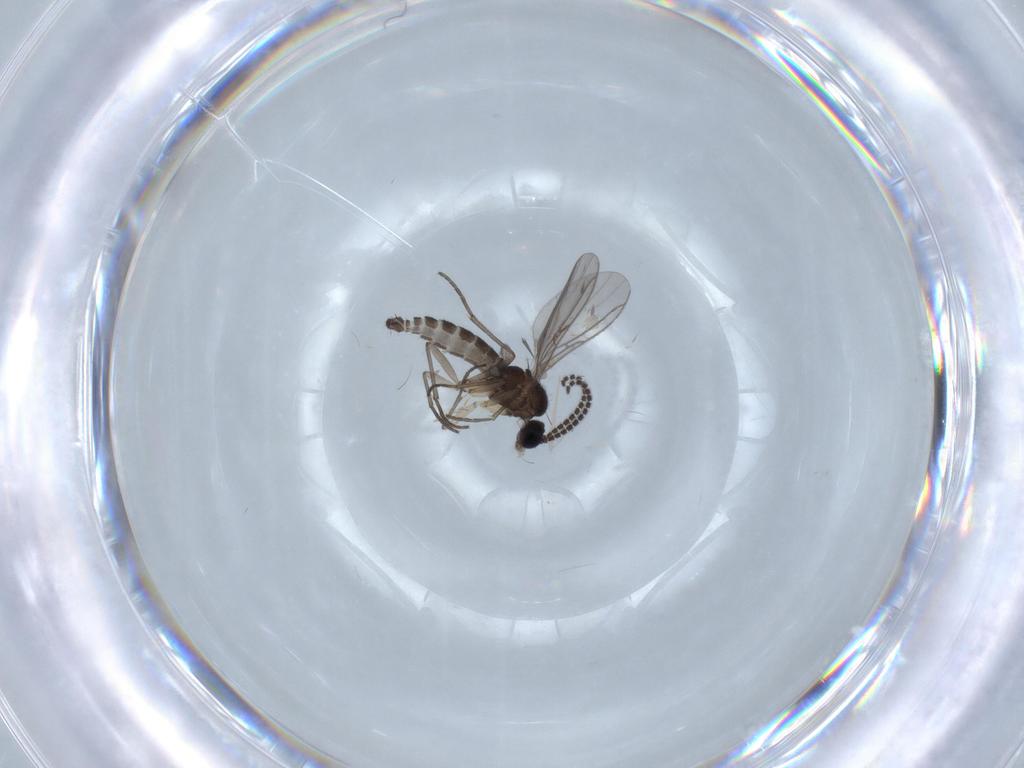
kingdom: Animalia
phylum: Arthropoda
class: Insecta
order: Diptera
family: Sciaridae
